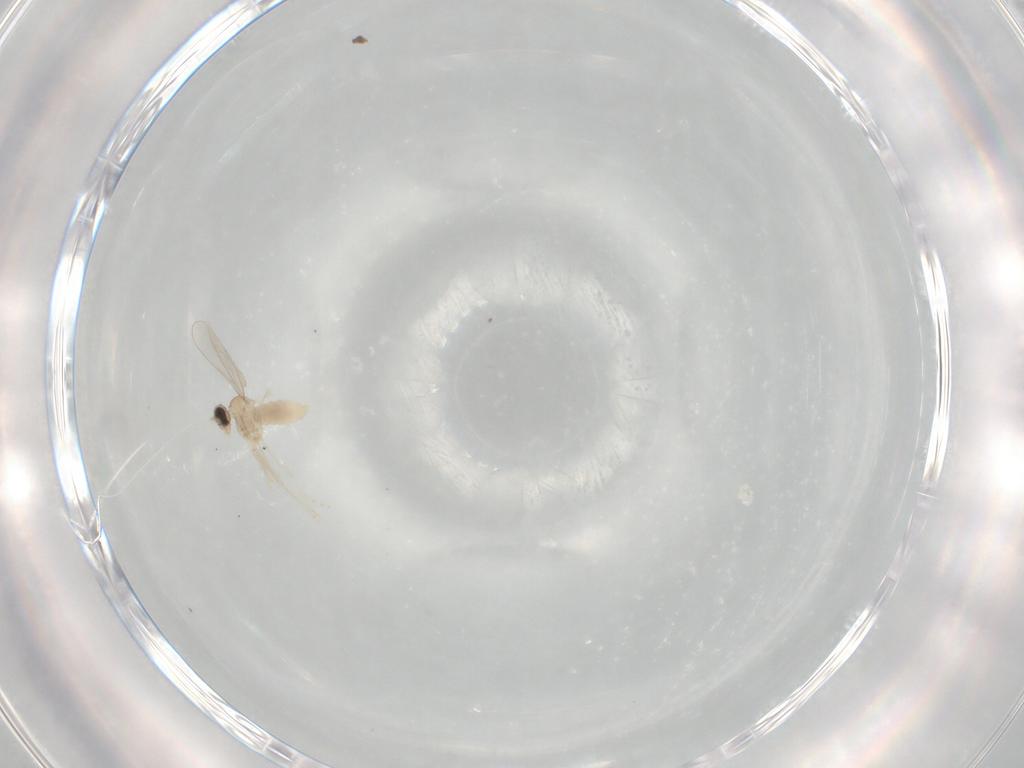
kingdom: Animalia
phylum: Arthropoda
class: Insecta
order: Diptera
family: Cecidomyiidae
